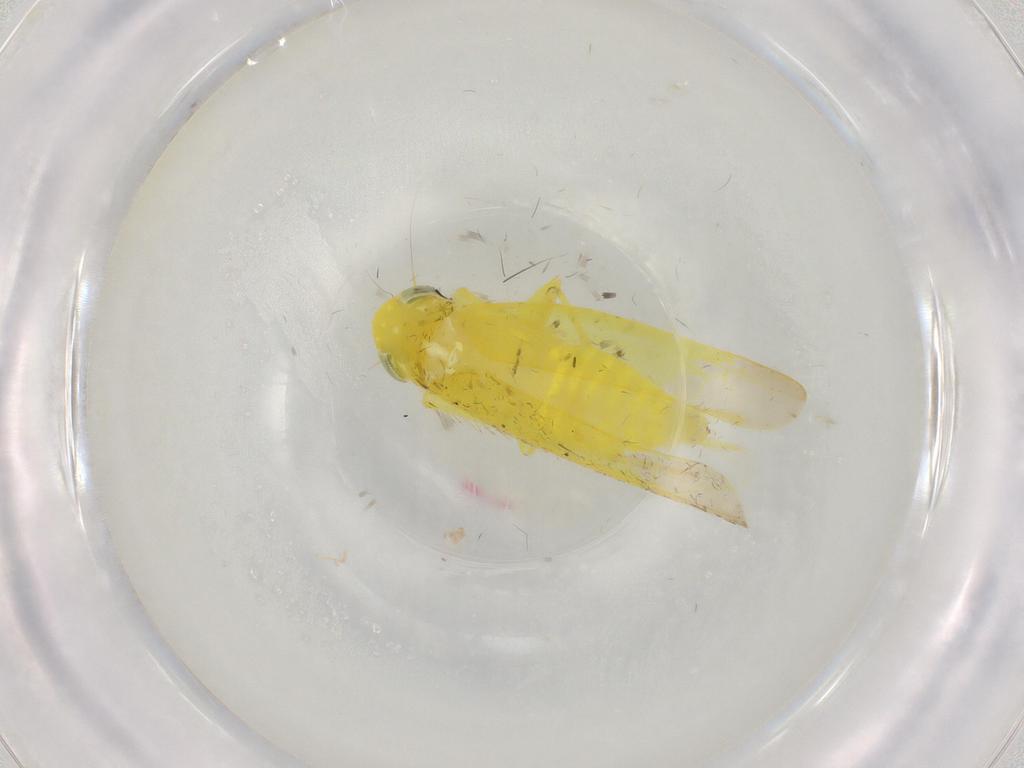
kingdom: Animalia
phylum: Arthropoda
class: Insecta
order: Hemiptera
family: Cicadellidae
